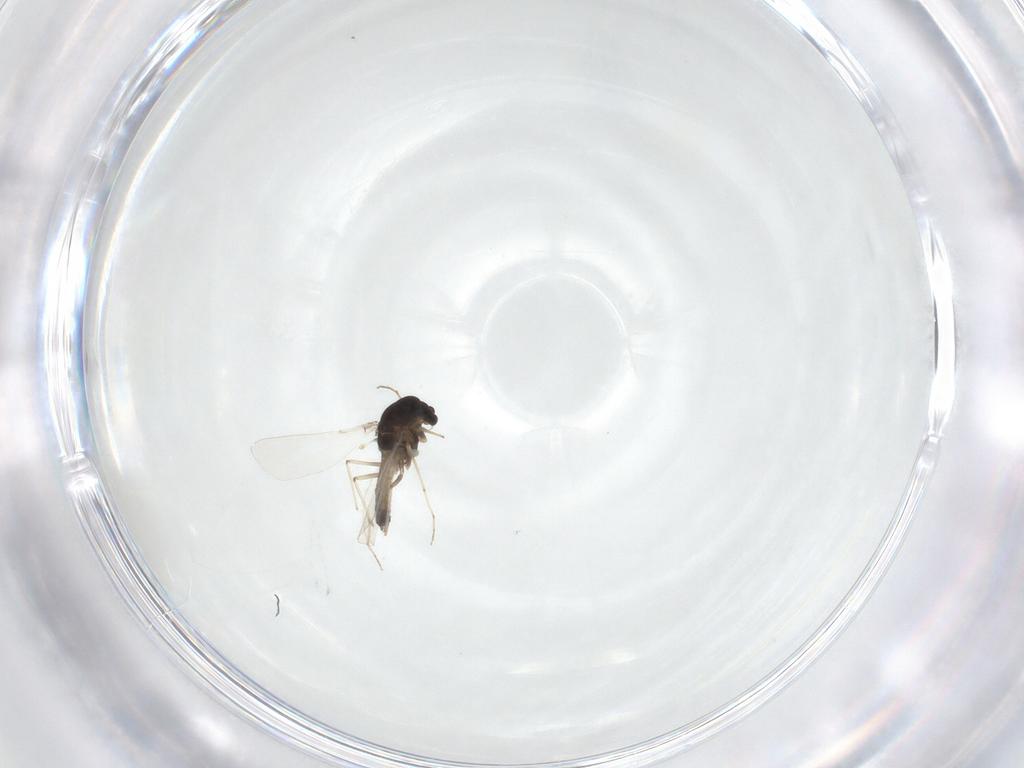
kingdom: Animalia
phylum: Arthropoda
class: Insecta
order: Diptera
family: Chironomidae
